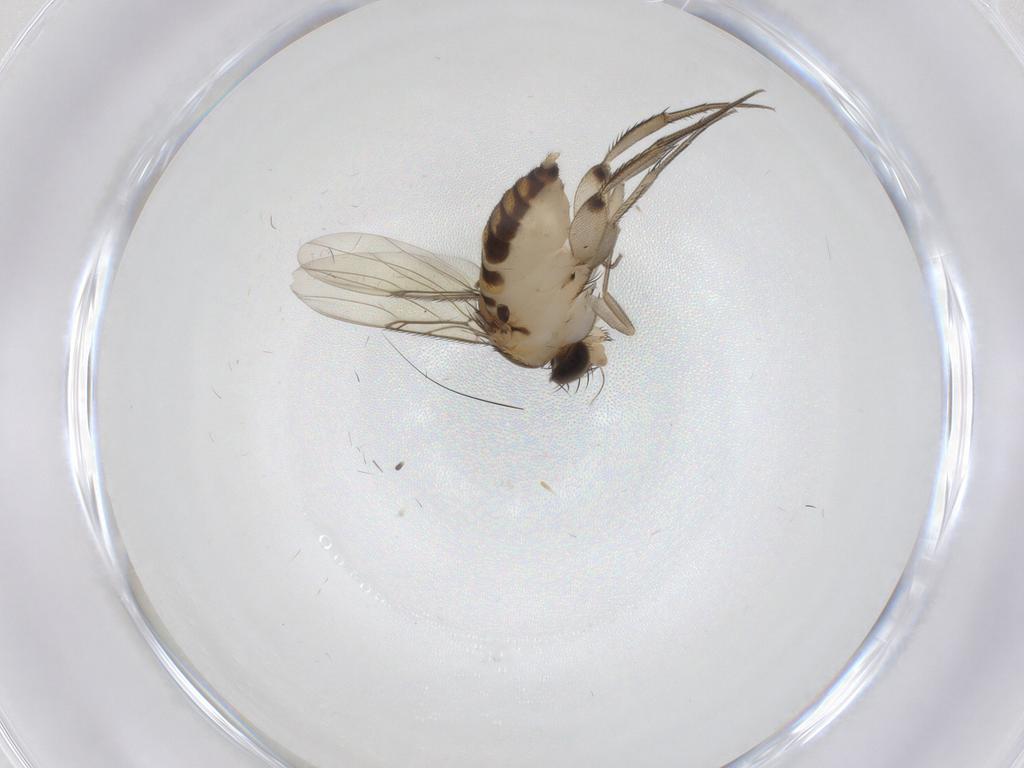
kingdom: Animalia
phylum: Arthropoda
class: Insecta
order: Diptera
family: Phoridae
